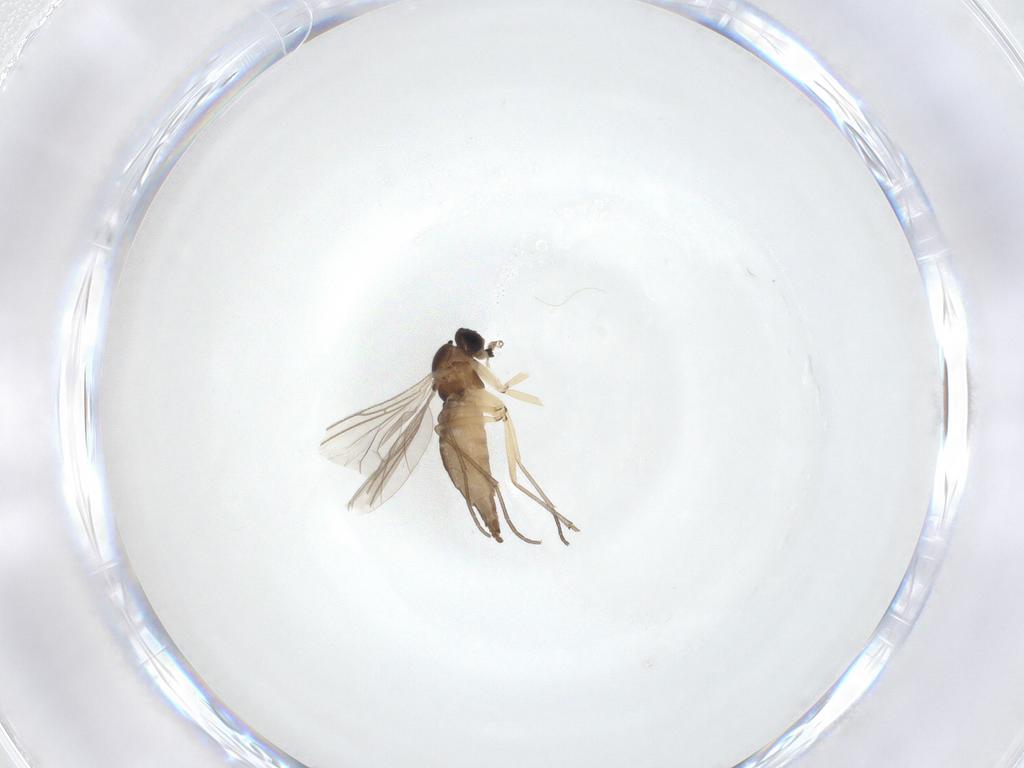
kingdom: Animalia
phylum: Arthropoda
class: Insecta
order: Diptera
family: Sciaridae
